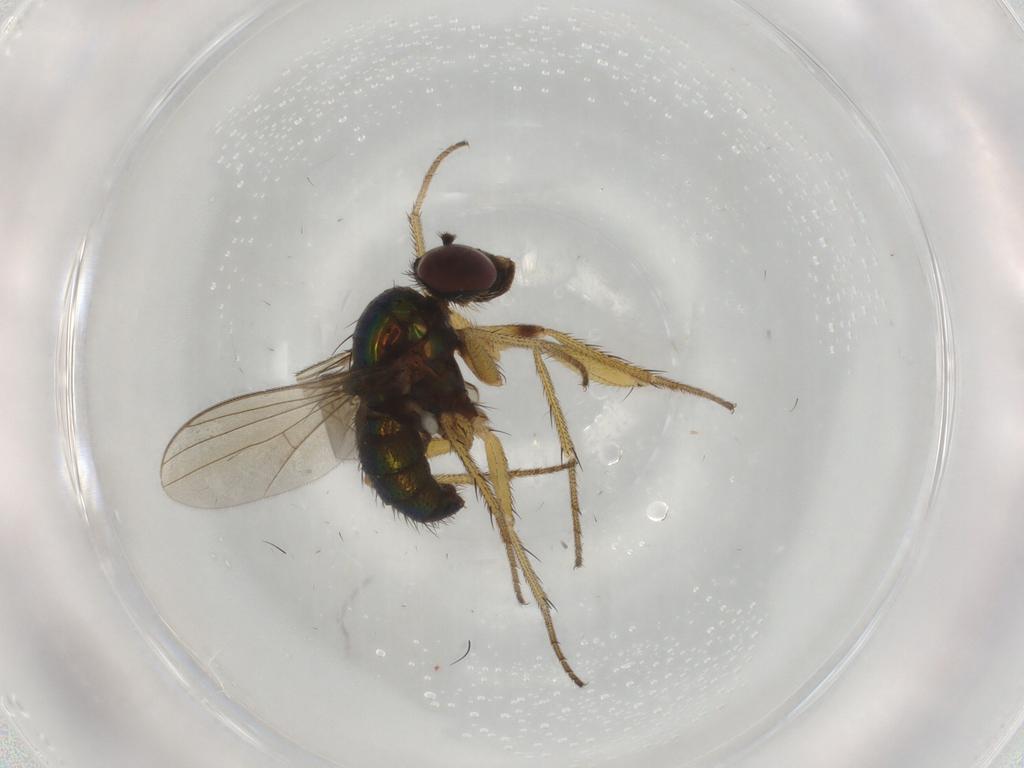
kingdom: Animalia
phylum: Arthropoda
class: Insecta
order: Diptera
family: Dolichopodidae
